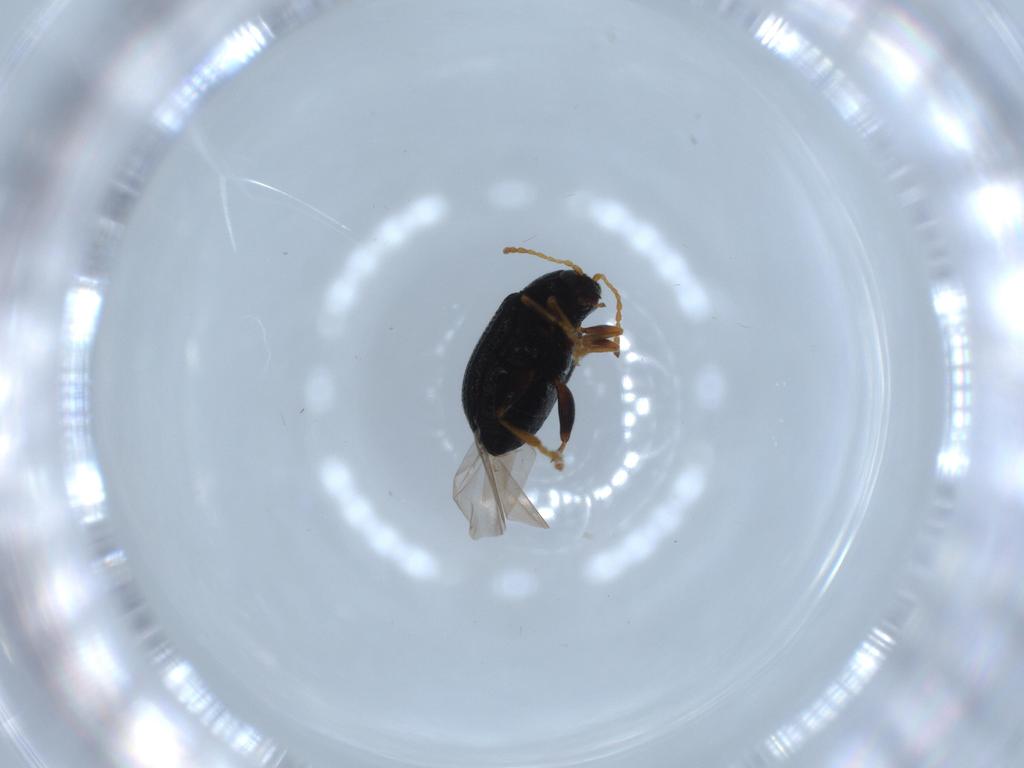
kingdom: Animalia
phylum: Arthropoda
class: Insecta
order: Coleoptera
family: Chrysomelidae
